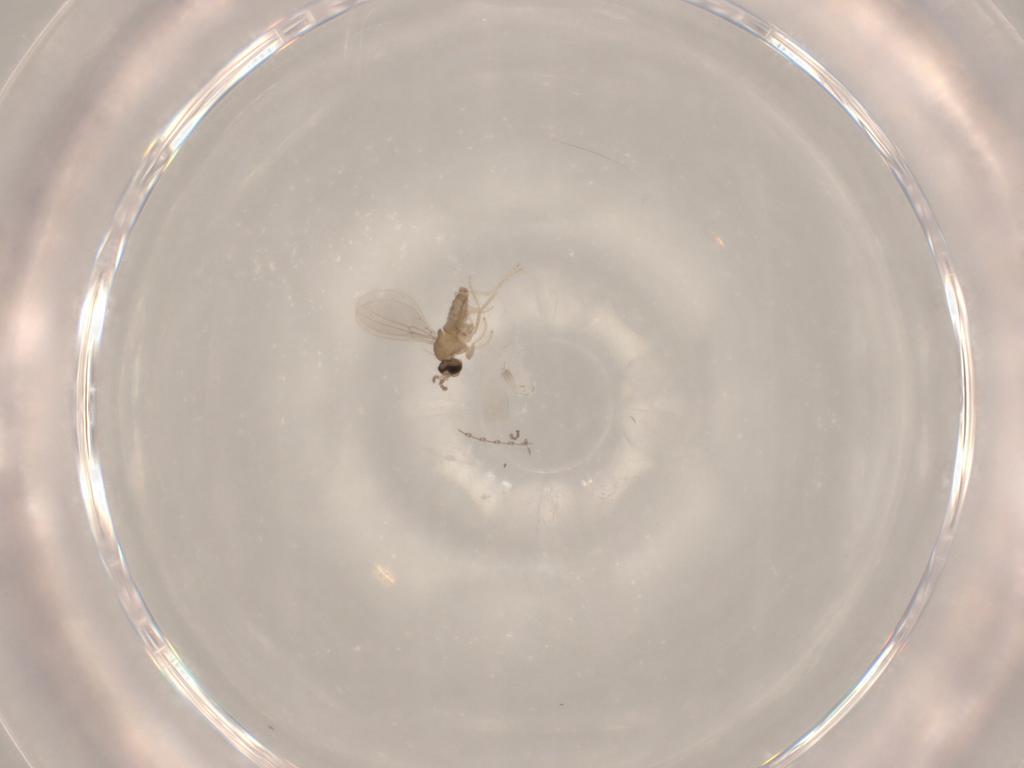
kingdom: Animalia
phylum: Arthropoda
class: Insecta
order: Diptera
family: Cecidomyiidae
